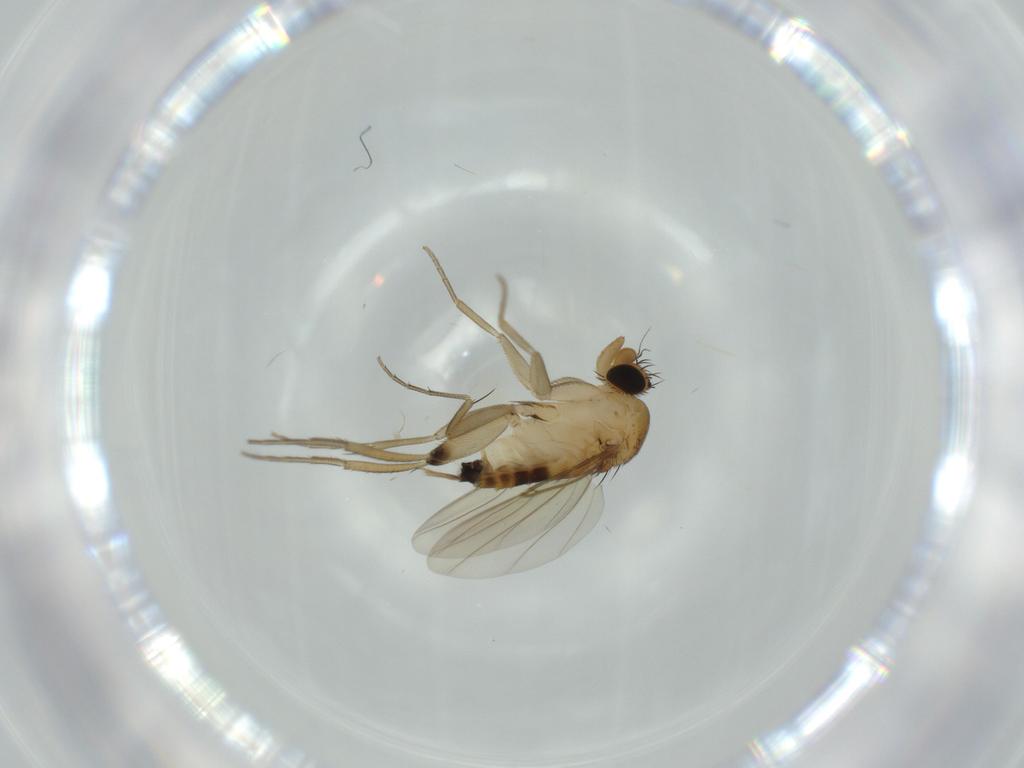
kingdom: Animalia
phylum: Arthropoda
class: Insecta
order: Diptera
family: Phoridae
